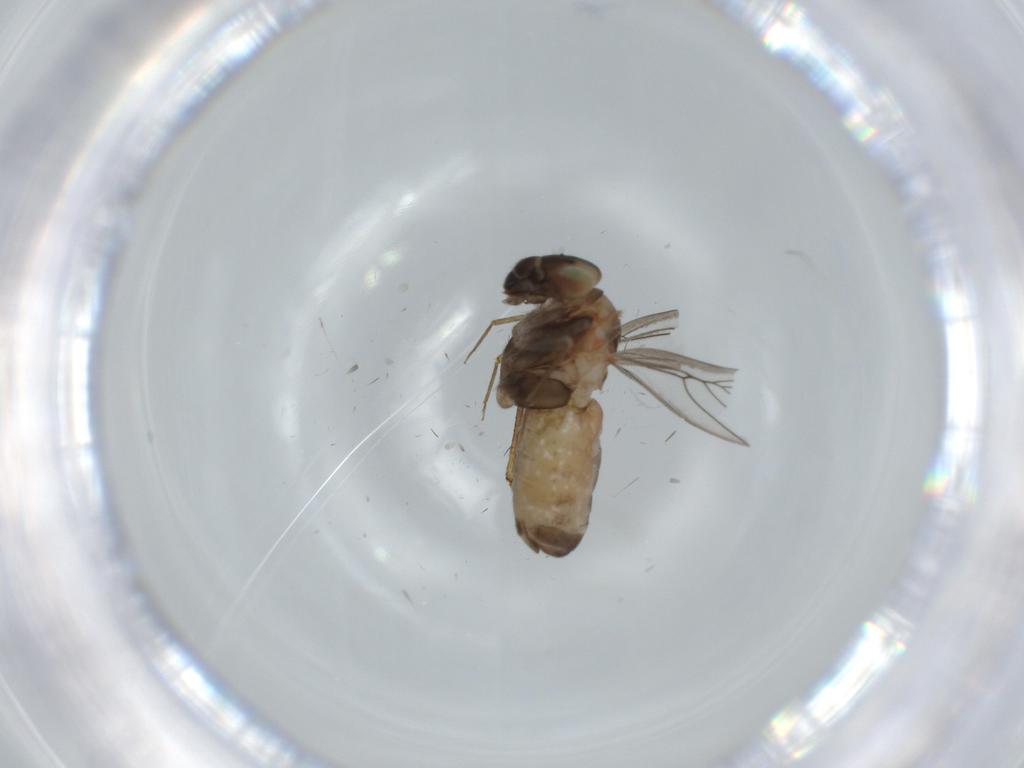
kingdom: Animalia
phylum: Arthropoda
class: Insecta
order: Psocodea
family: Lepidopsocidae
